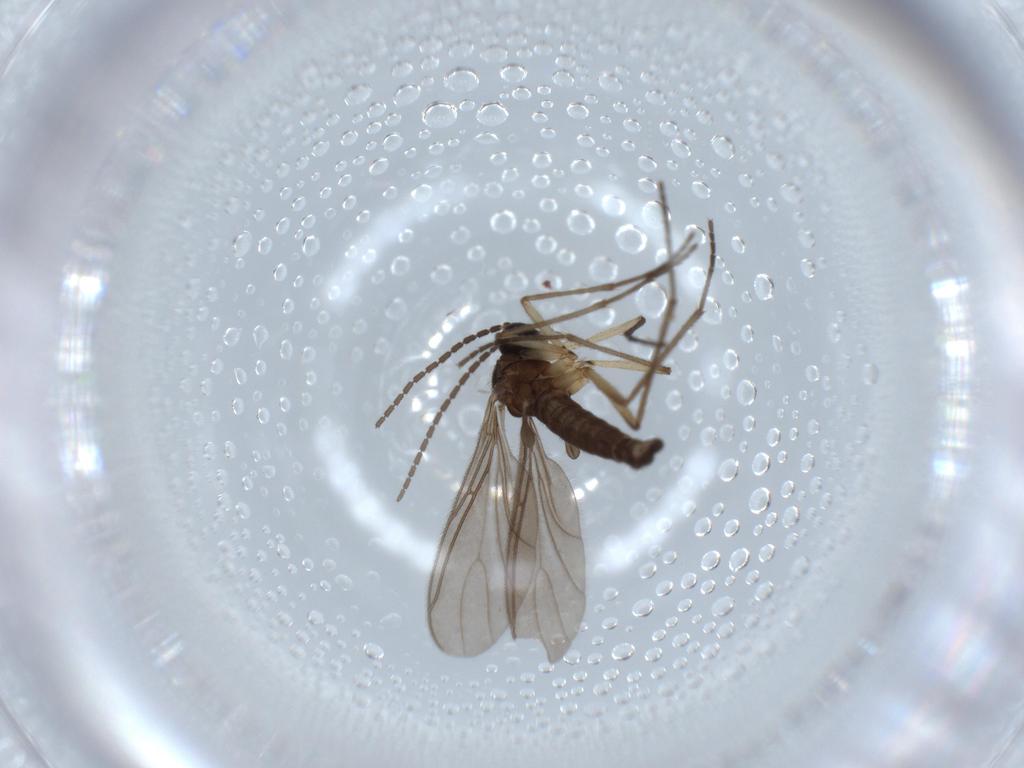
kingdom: Animalia
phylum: Arthropoda
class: Insecta
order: Diptera
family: Sciaridae
